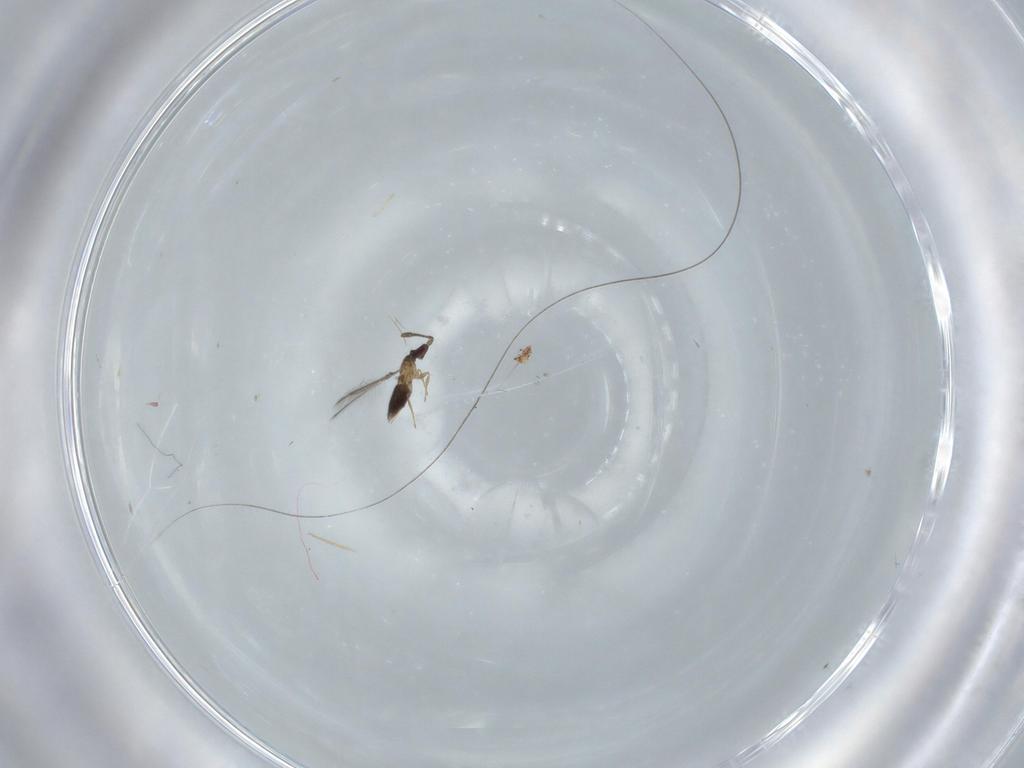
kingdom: Animalia
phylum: Arthropoda
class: Insecta
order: Hymenoptera
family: Mymaridae
